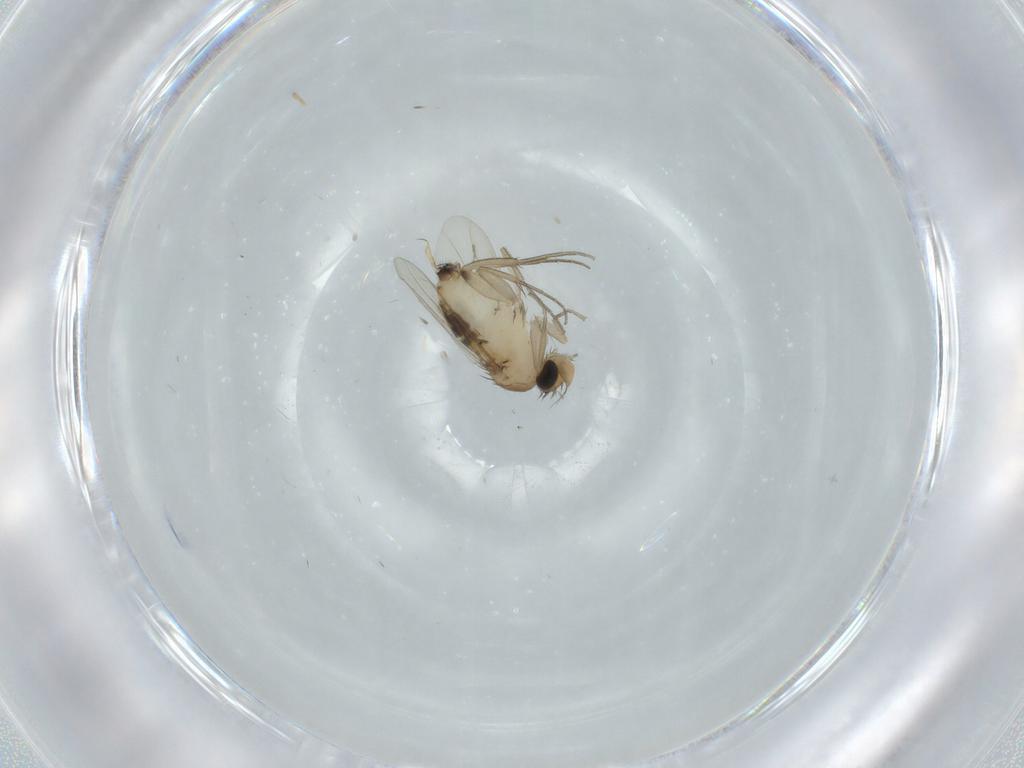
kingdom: Animalia
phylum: Arthropoda
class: Insecta
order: Diptera
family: Phoridae
